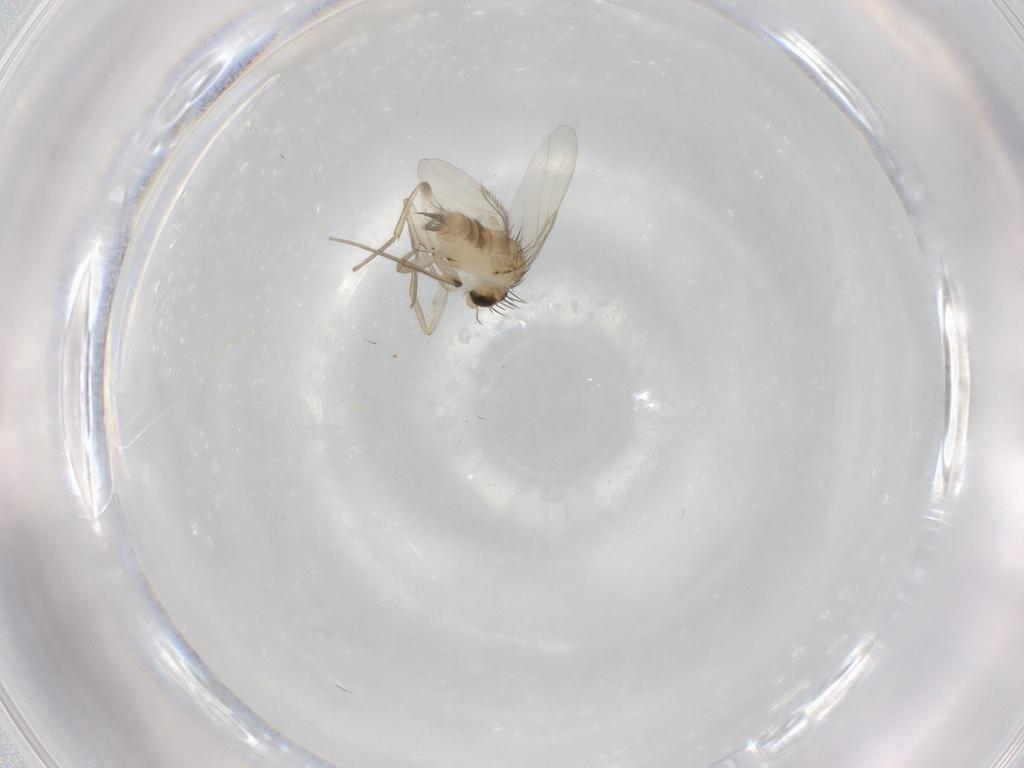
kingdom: Animalia
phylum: Arthropoda
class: Insecta
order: Diptera
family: Phoridae
